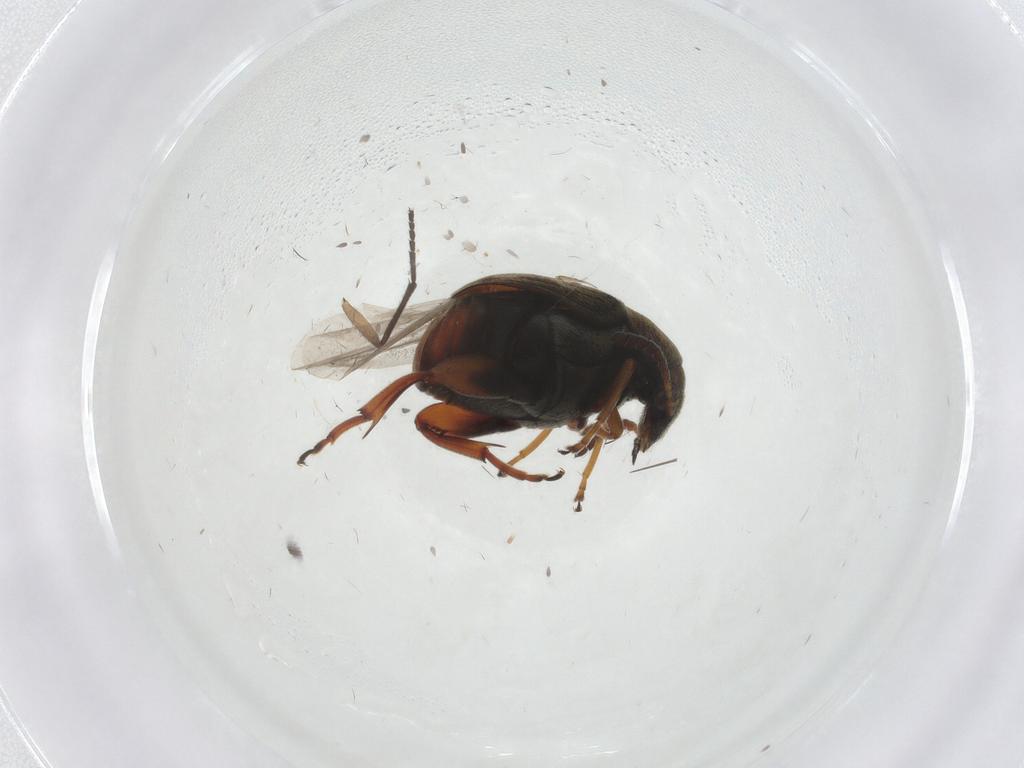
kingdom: Animalia
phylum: Arthropoda
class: Insecta
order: Coleoptera
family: Chrysomelidae
